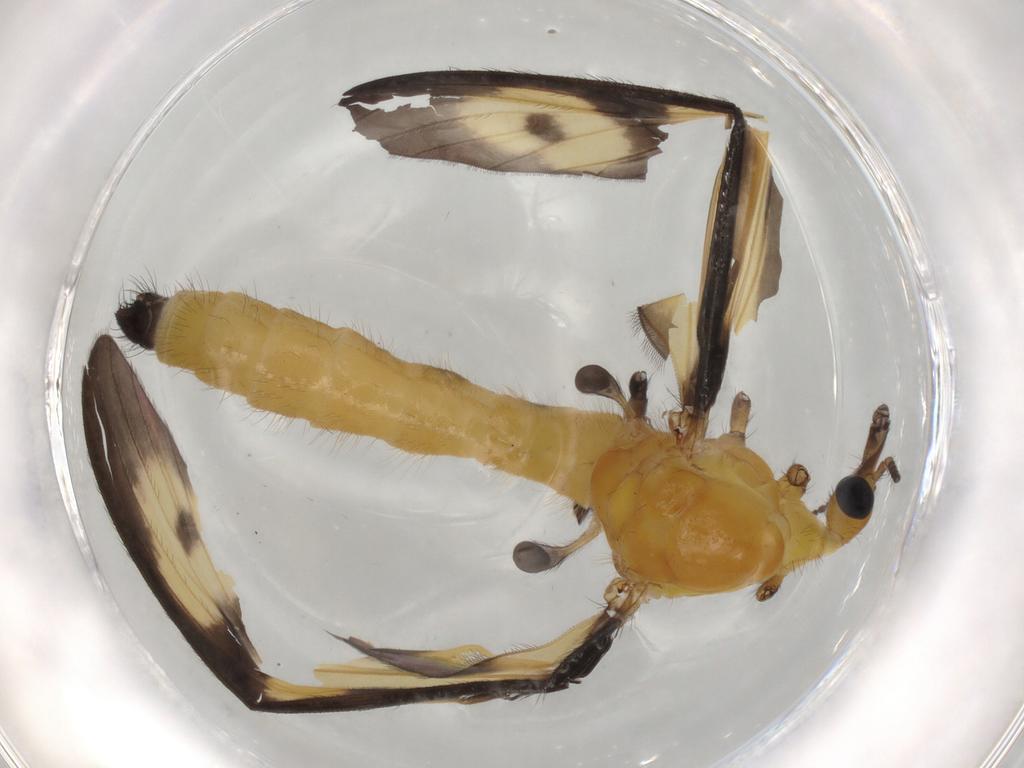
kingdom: Animalia
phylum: Arthropoda
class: Insecta
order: Diptera
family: Limoniidae
